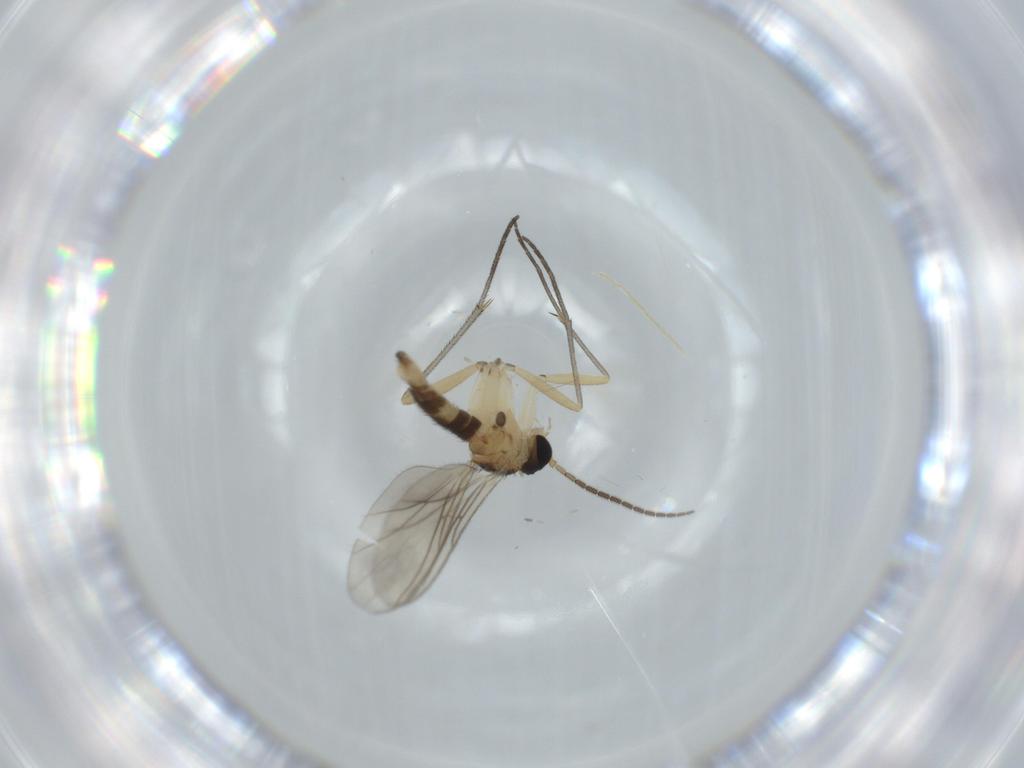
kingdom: Animalia
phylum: Arthropoda
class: Insecta
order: Diptera
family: Sciaridae
